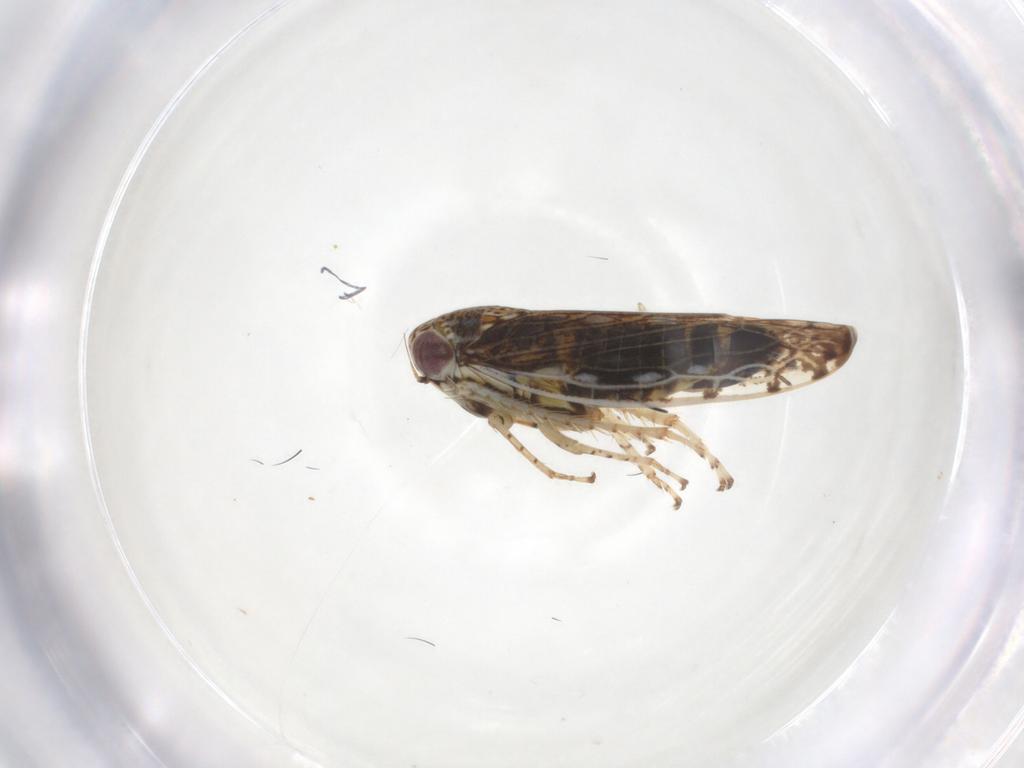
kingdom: Animalia
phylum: Arthropoda
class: Insecta
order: Hemiptera
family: Cicadellidae
